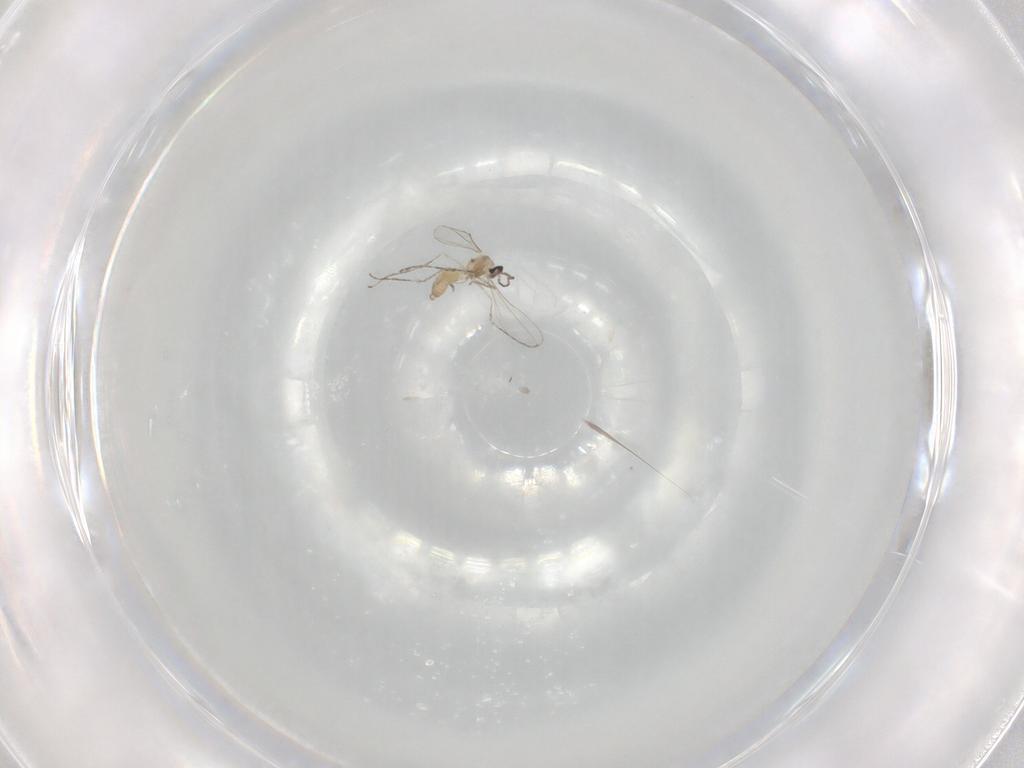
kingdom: Animalia
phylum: Arthropoda
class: Insecta
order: Diptera
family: Cecidomyiidae
